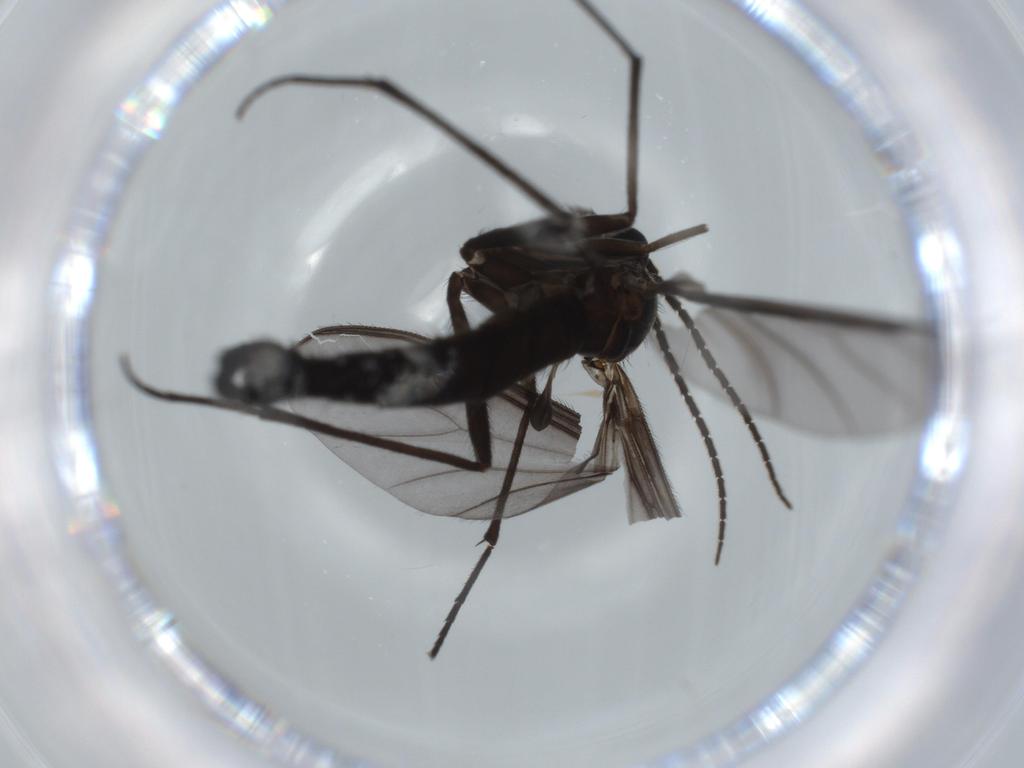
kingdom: Animalia
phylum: Arthropoda
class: Insecta
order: Diptera
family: Sciaridae
